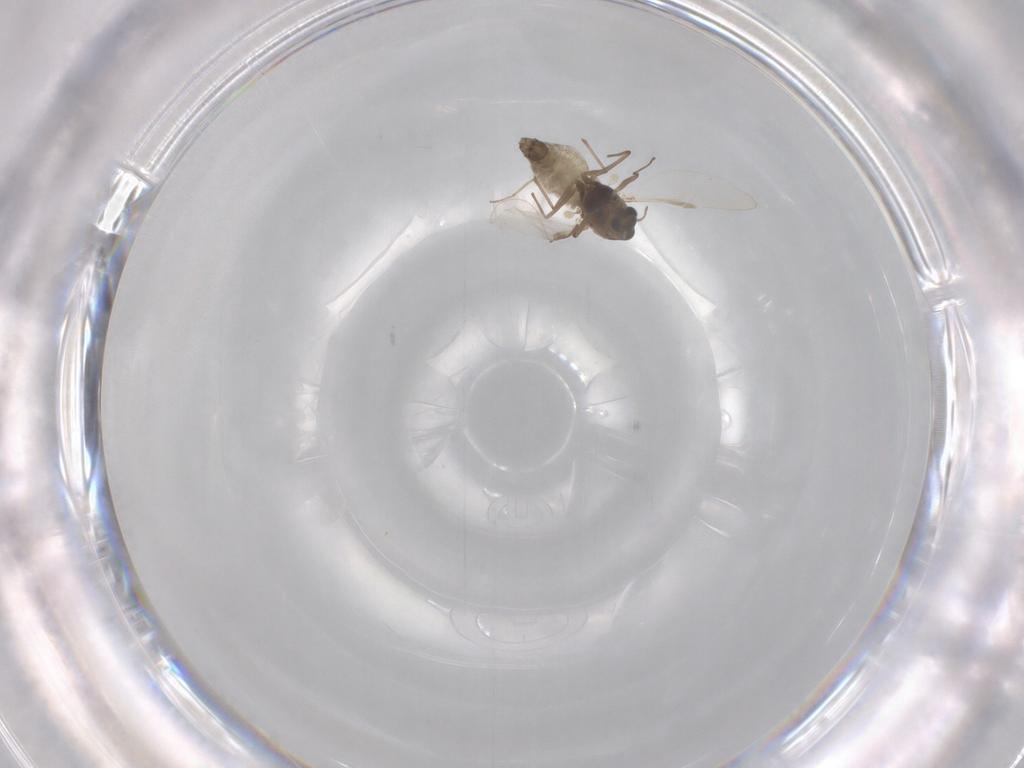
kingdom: Animalia
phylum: Arthropoda
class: Insecta
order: Diptera
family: Chironomidae
